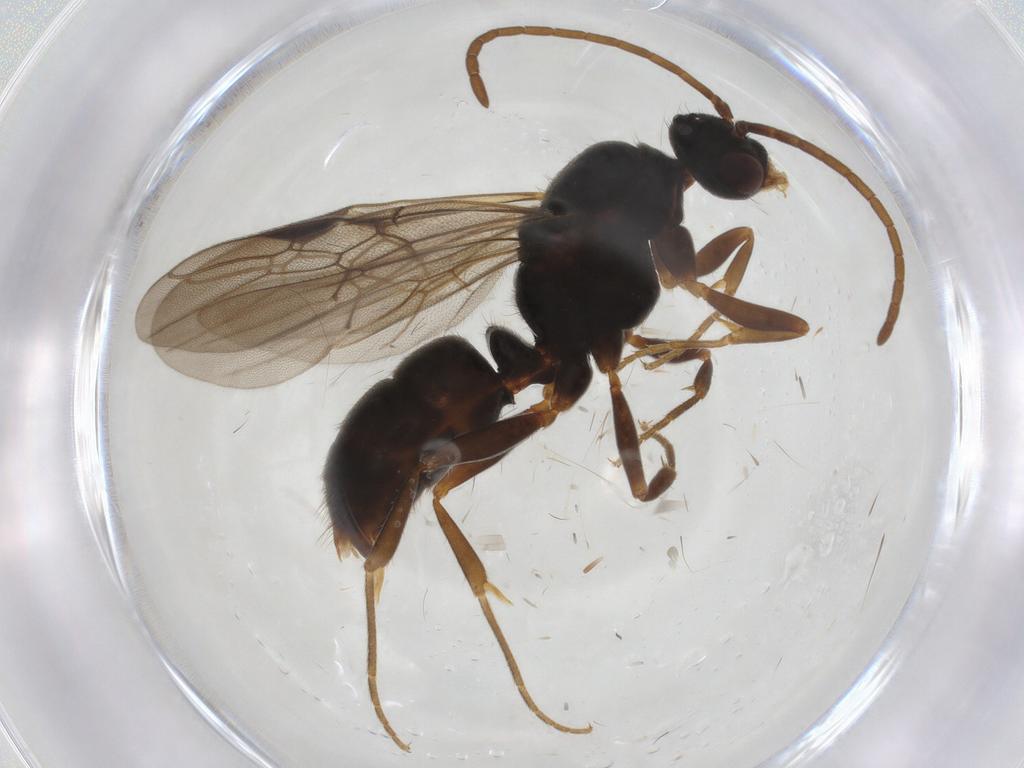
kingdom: Animalia
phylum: Arthropoda
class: Insecta
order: Hymenoptera
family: Formicidae
